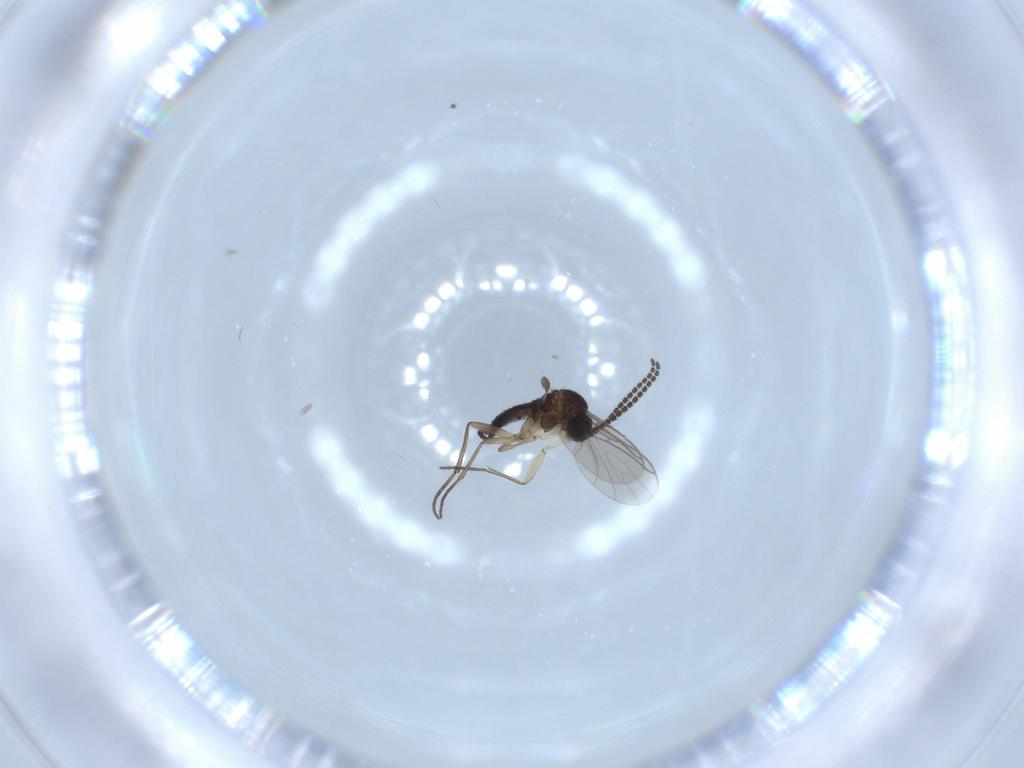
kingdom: Animalia
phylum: Arthropoda
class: Insecta
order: Diptera
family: Sciaridae
